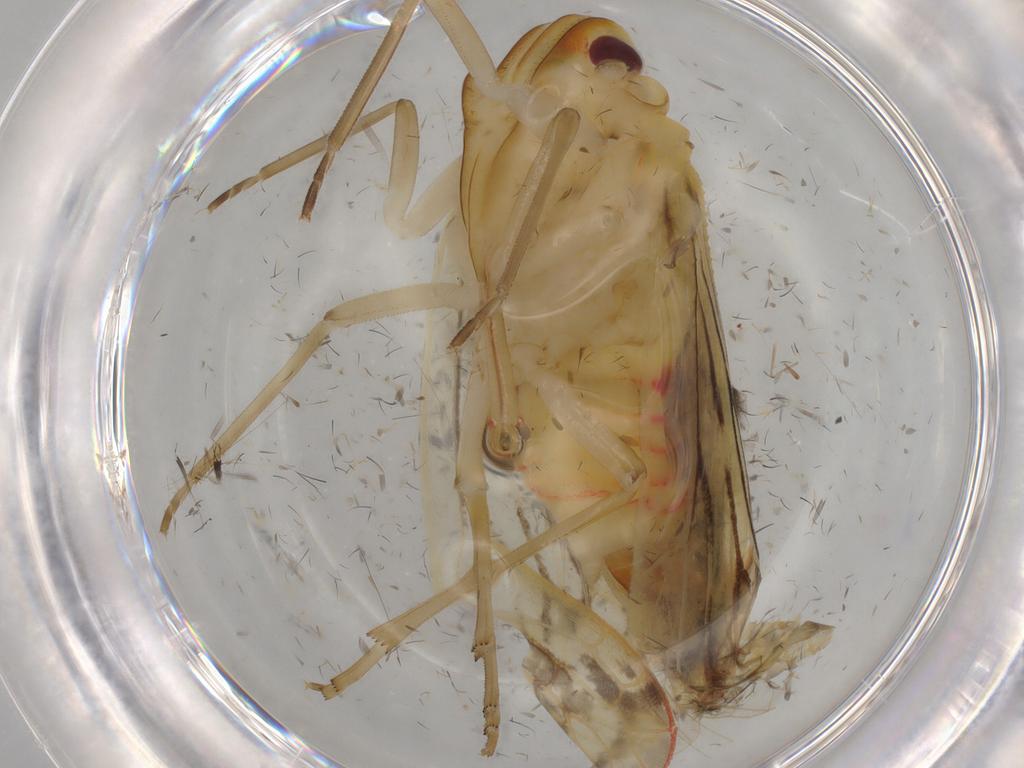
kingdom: Animalia
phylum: Arthropoda
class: Insecta
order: Hemiptera
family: Derbidae
